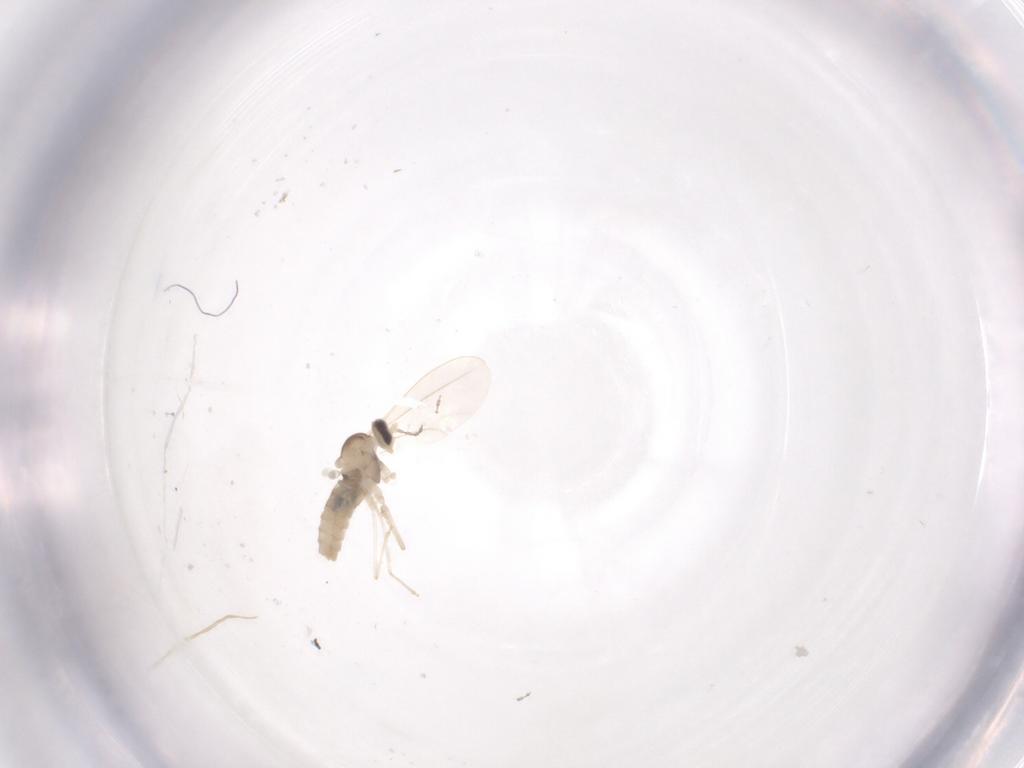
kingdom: Animalia
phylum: Arthropoda
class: Insecta
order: Diptera
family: Cecidomyiidae
